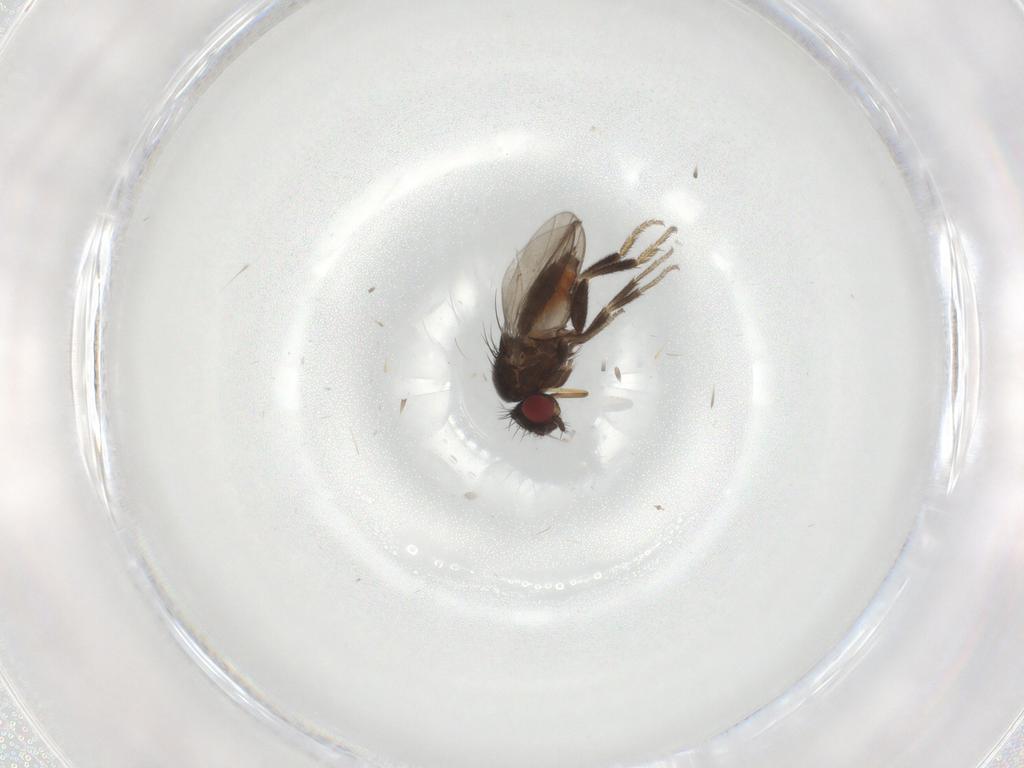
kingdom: Animalia
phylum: Arthropoda
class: Insecta
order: Diptera
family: Milichiidae
